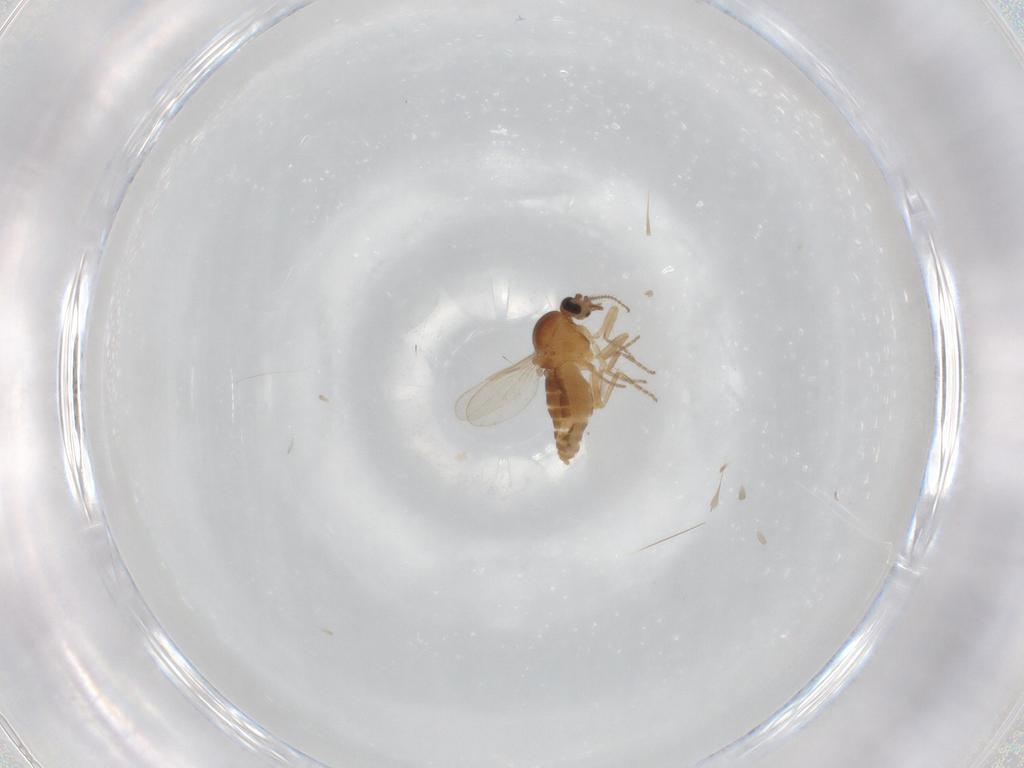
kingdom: Animalia
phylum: Arthropoda
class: Insecta
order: Diptera
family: Ceratopogonidae
